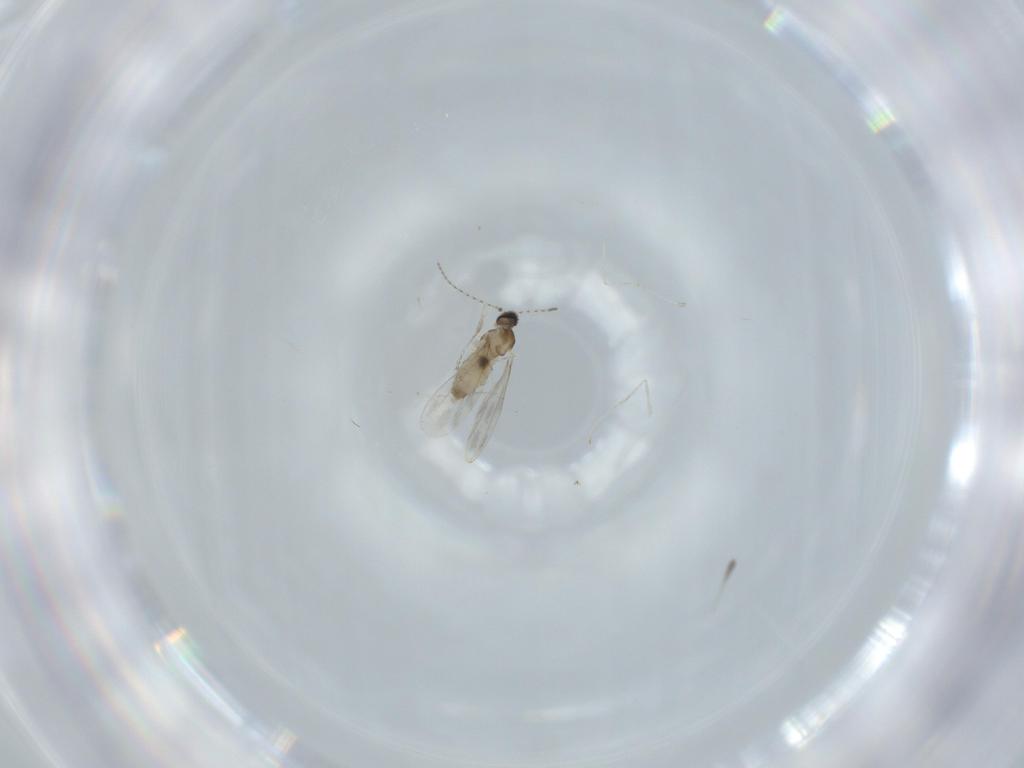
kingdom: Animalia
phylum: Arthropoda
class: Insecta
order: Diptera
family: Cecidomyiidae
